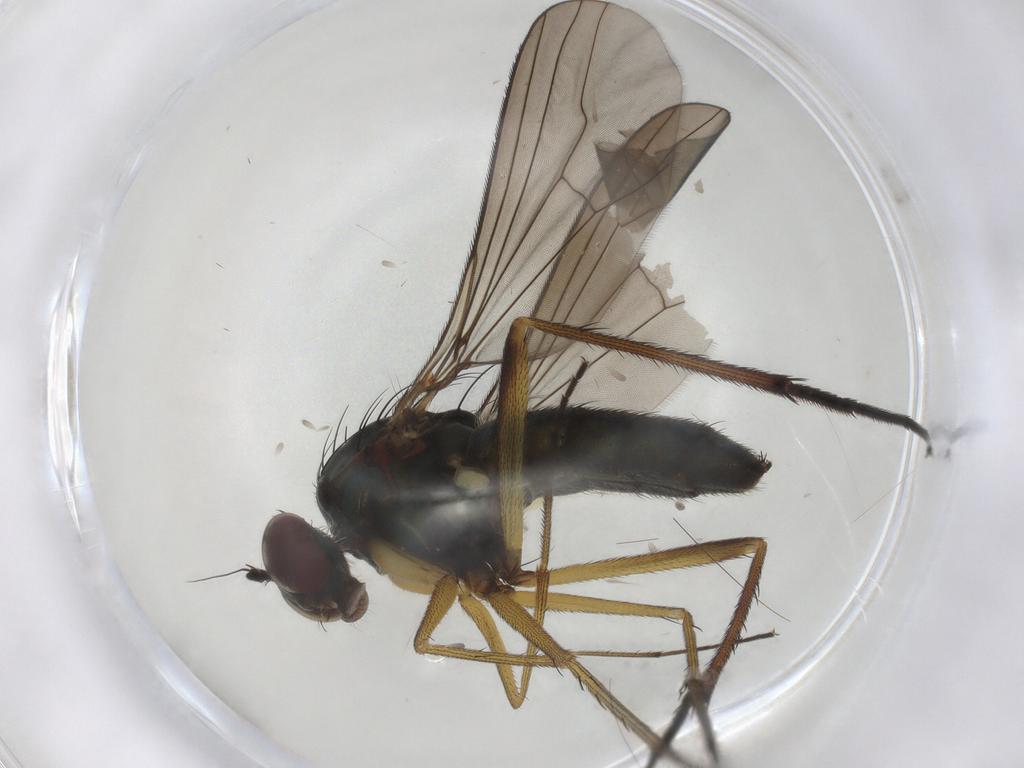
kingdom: Animalia
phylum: Arthropoda
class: Insecta
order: Diptera
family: Dolichopodidae
